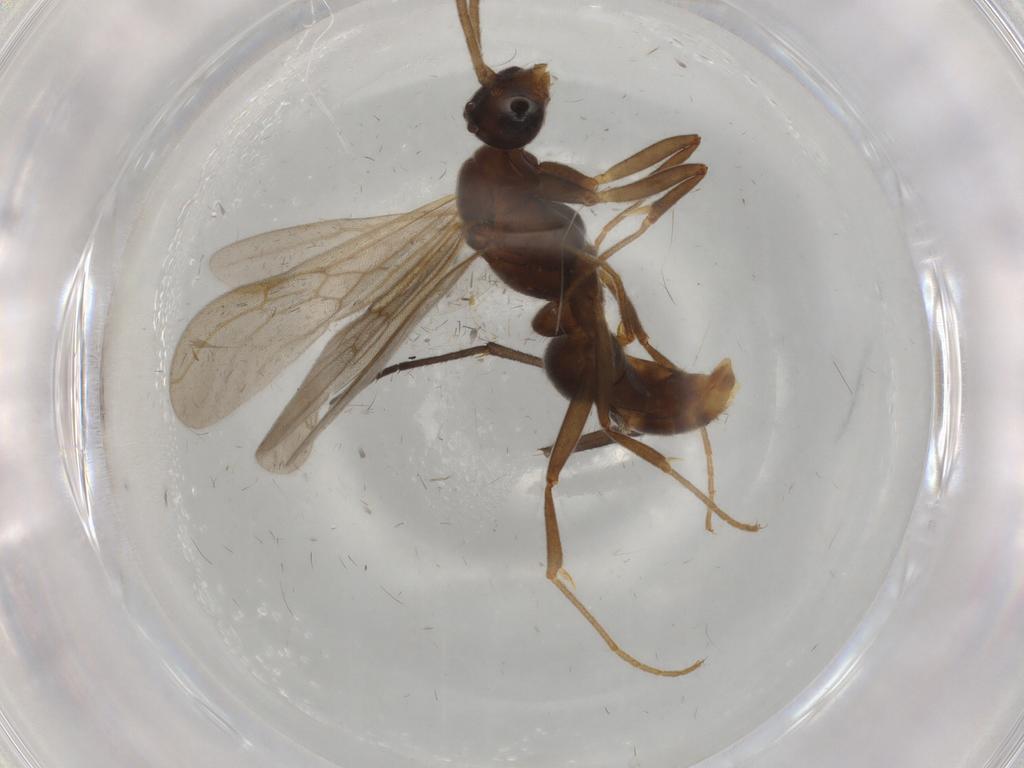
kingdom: Animalia
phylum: Arthropoda
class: Insecta
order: Hymenoptera
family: Formicidae
